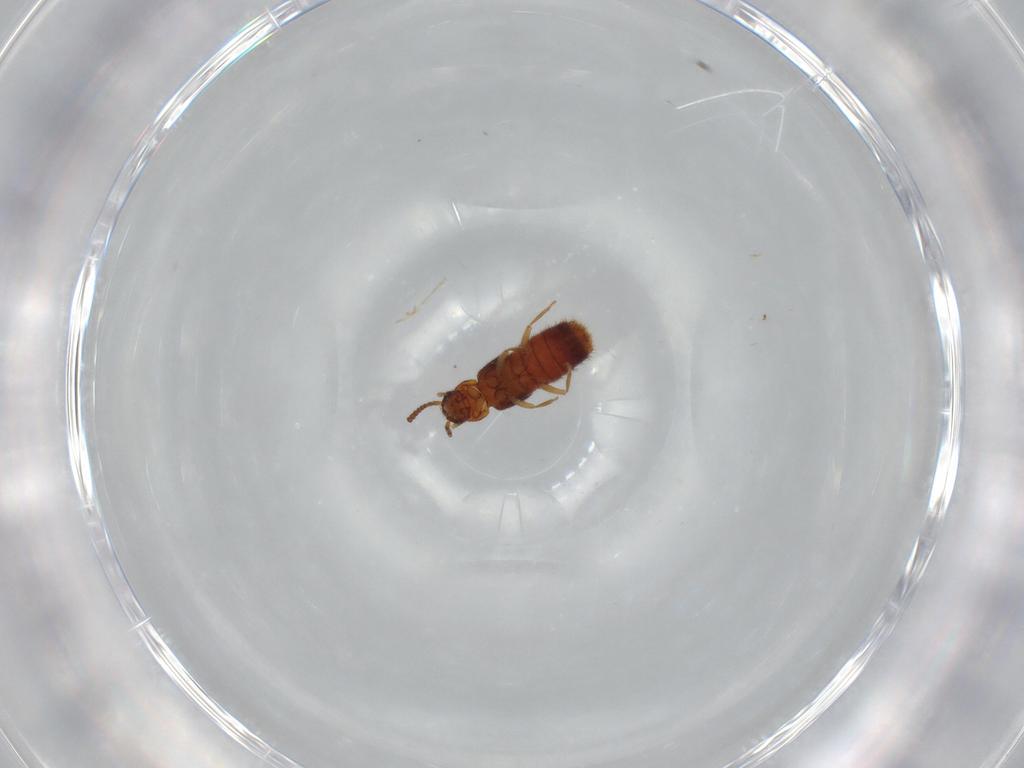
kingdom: Animalia
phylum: Arthropoda
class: Insecta
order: Coleoptera
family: Staphylinidae
